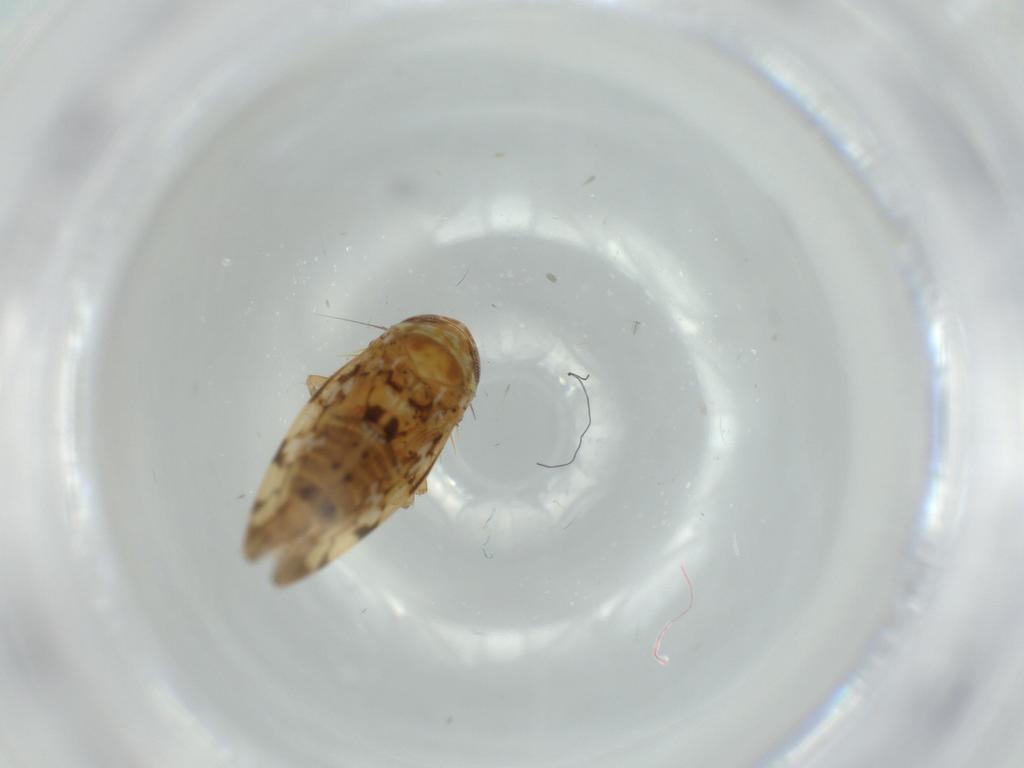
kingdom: Animalia
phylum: Arthropoda
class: Insecta
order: Hemiptera
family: Cicadellidae
